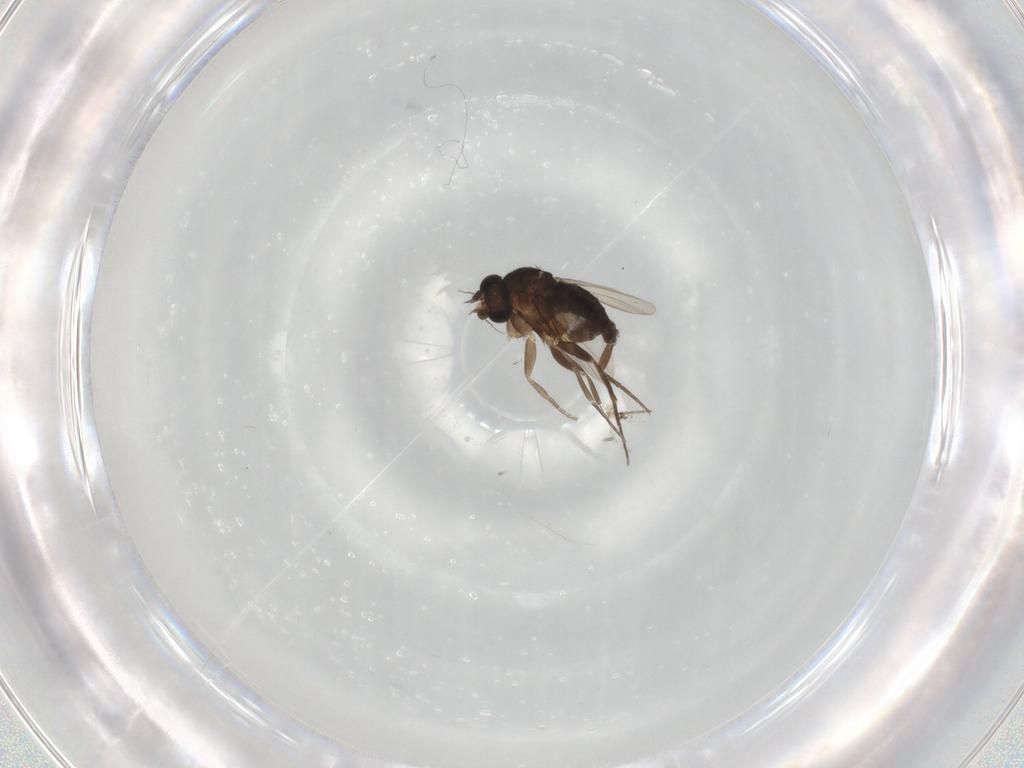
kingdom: Animalia
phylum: Arthropoda
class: Insecta
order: Diptera
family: Phoridae
